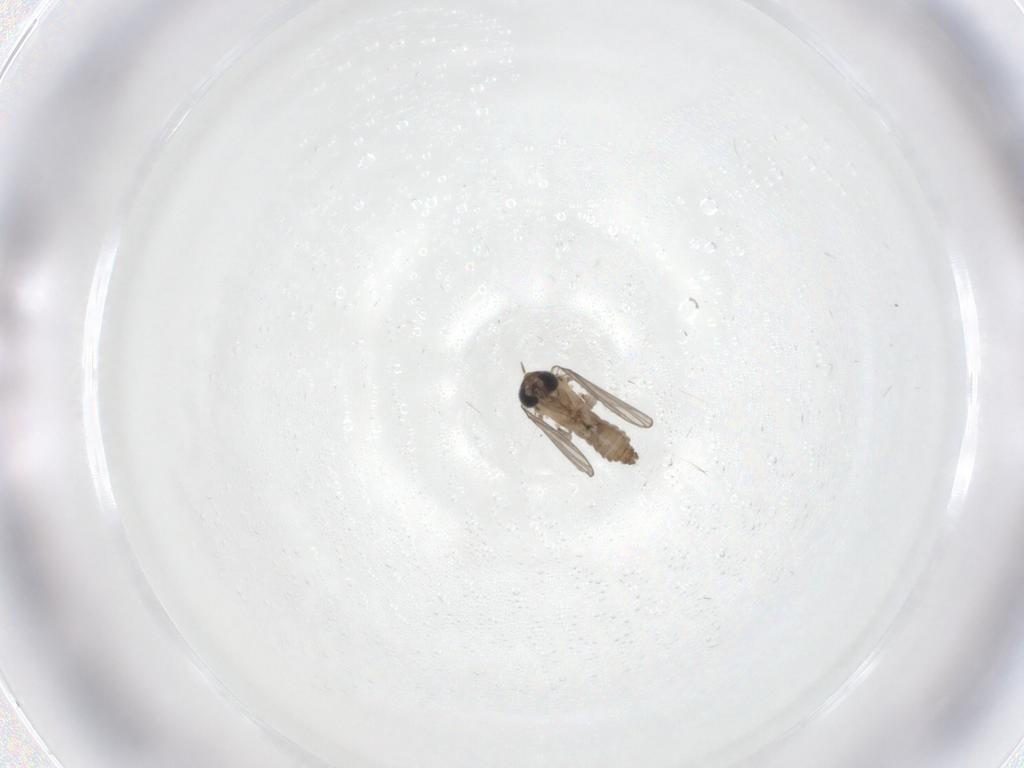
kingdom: Animalia
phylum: Arthropoda
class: Insecta
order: Diptera
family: Psychodidae
